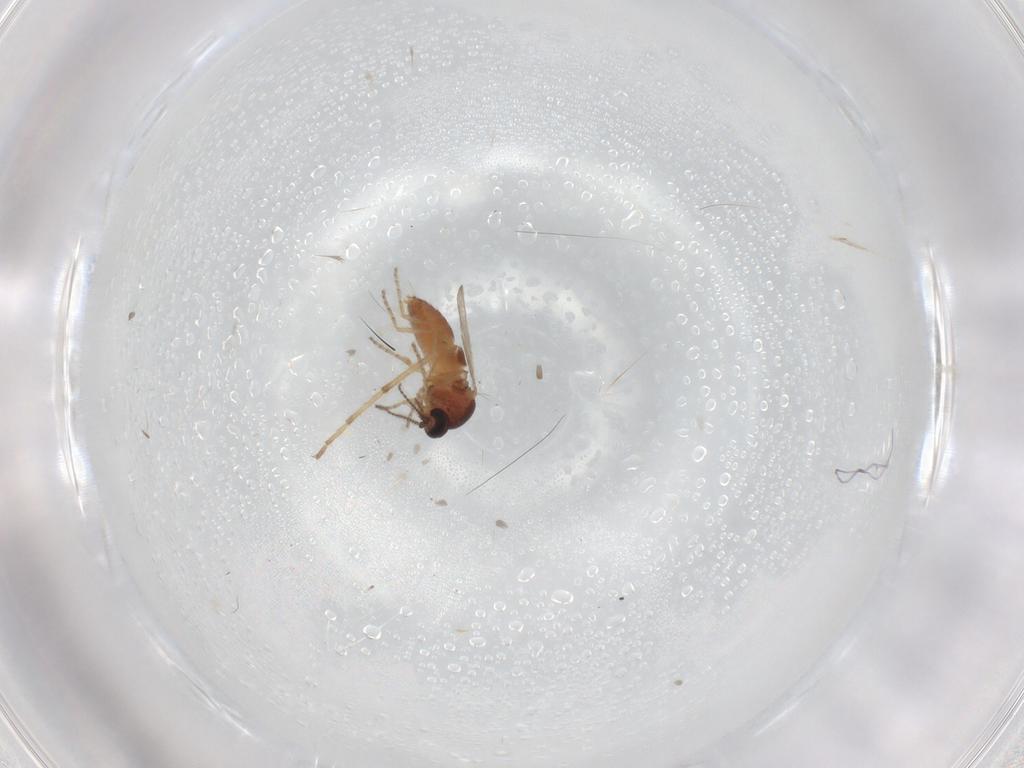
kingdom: Animalia
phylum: Arthropoda
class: Insecta
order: Diptera
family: Ceratopogonidae
